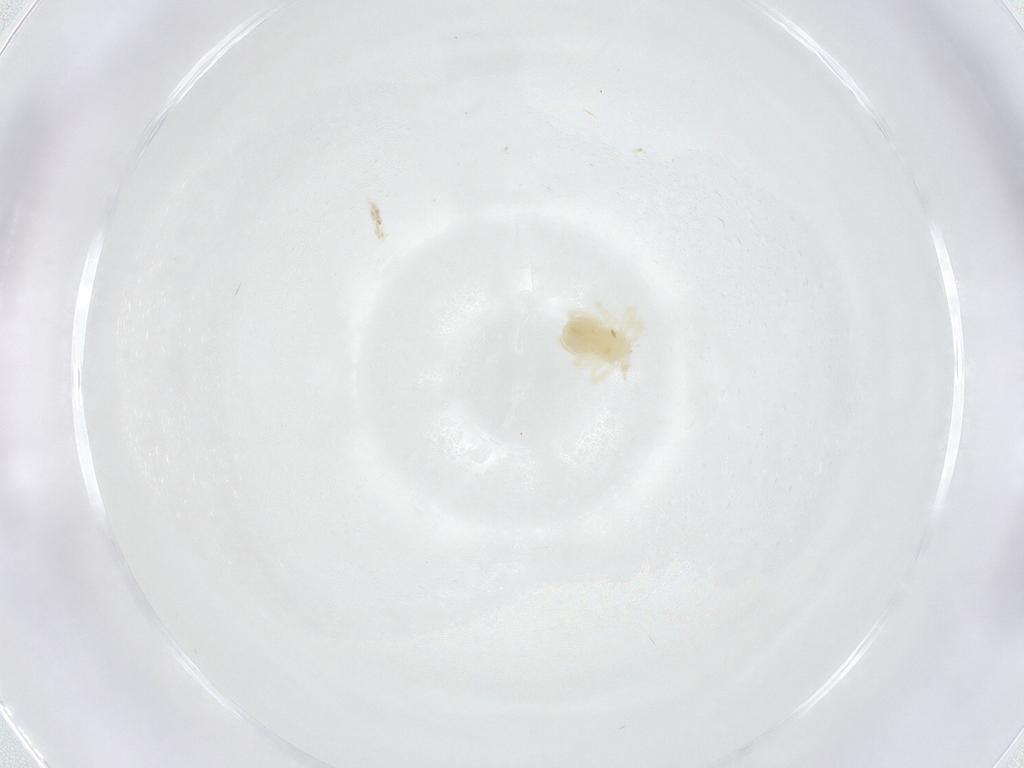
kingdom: Animalia
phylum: Arthropoda
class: Arachnida
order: Trombidiformes
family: Anystidae
